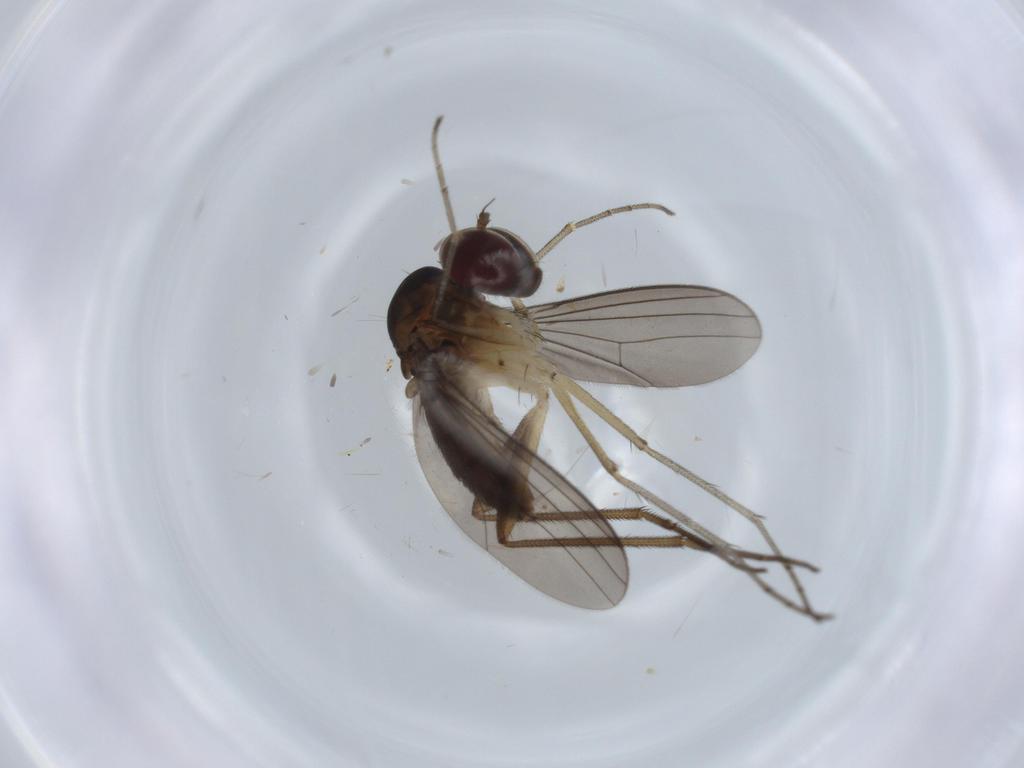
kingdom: Animalia
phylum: Arthropoda
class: Insecta
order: Diptera
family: Dolichopodidae
